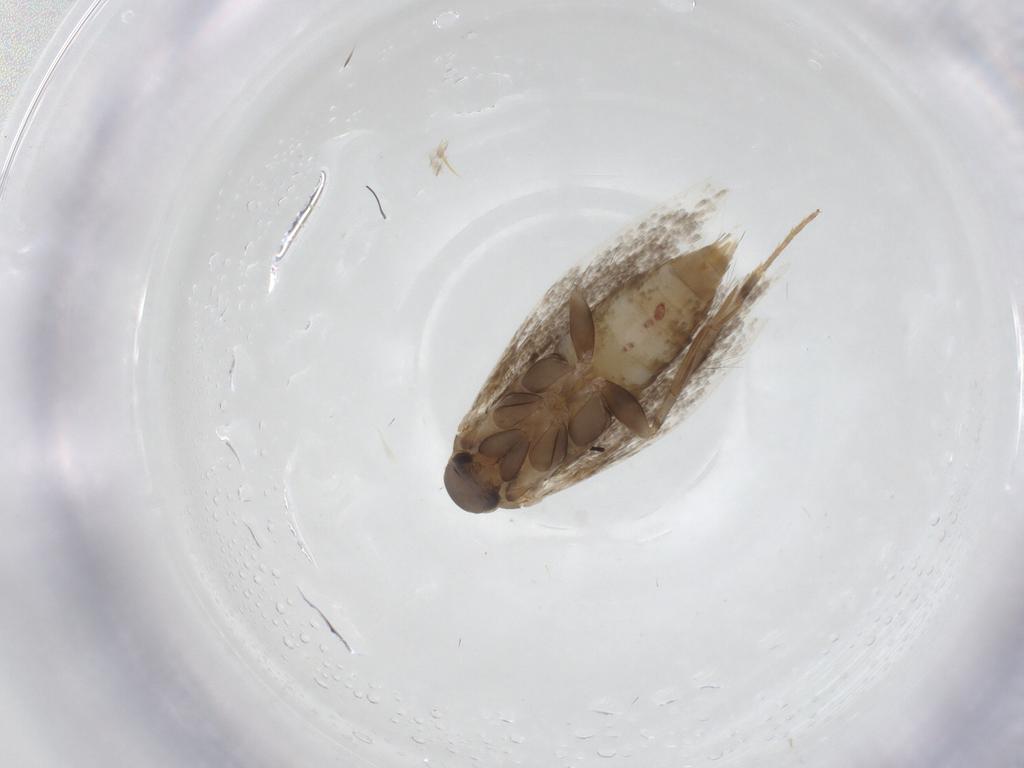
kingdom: Animalia
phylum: Arthropoda
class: Insecta
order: Lepidoptera
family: Elachistidae
